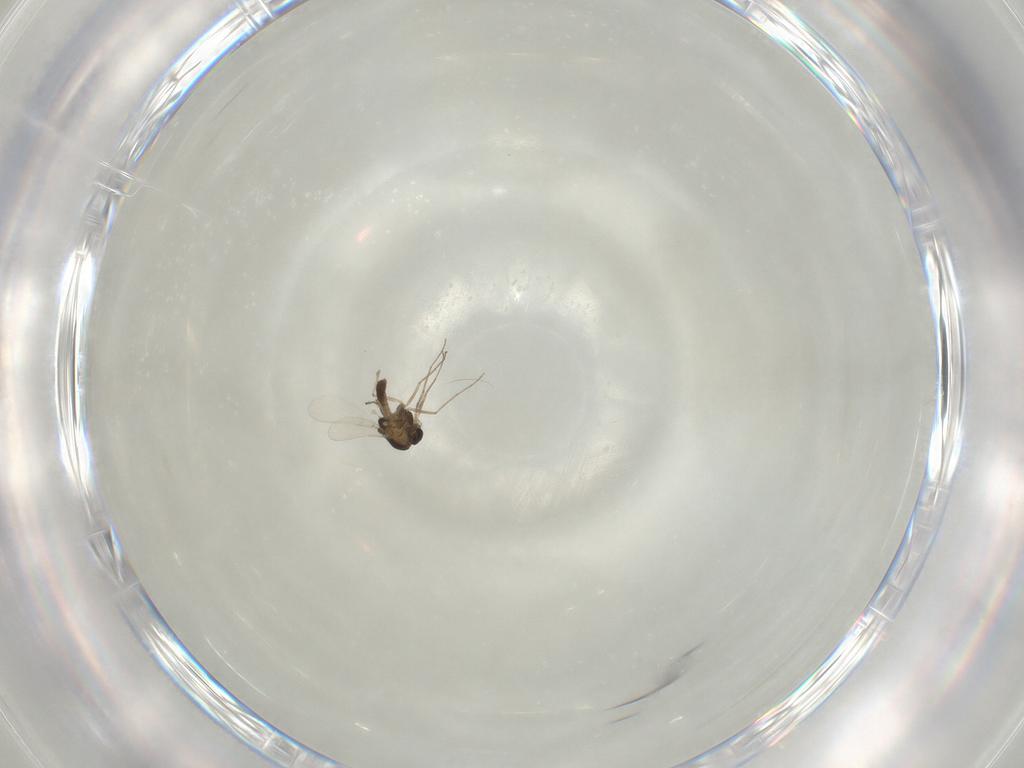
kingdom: Animalia
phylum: Arthropoda
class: Insecta
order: Diptera
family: Chironomidae
